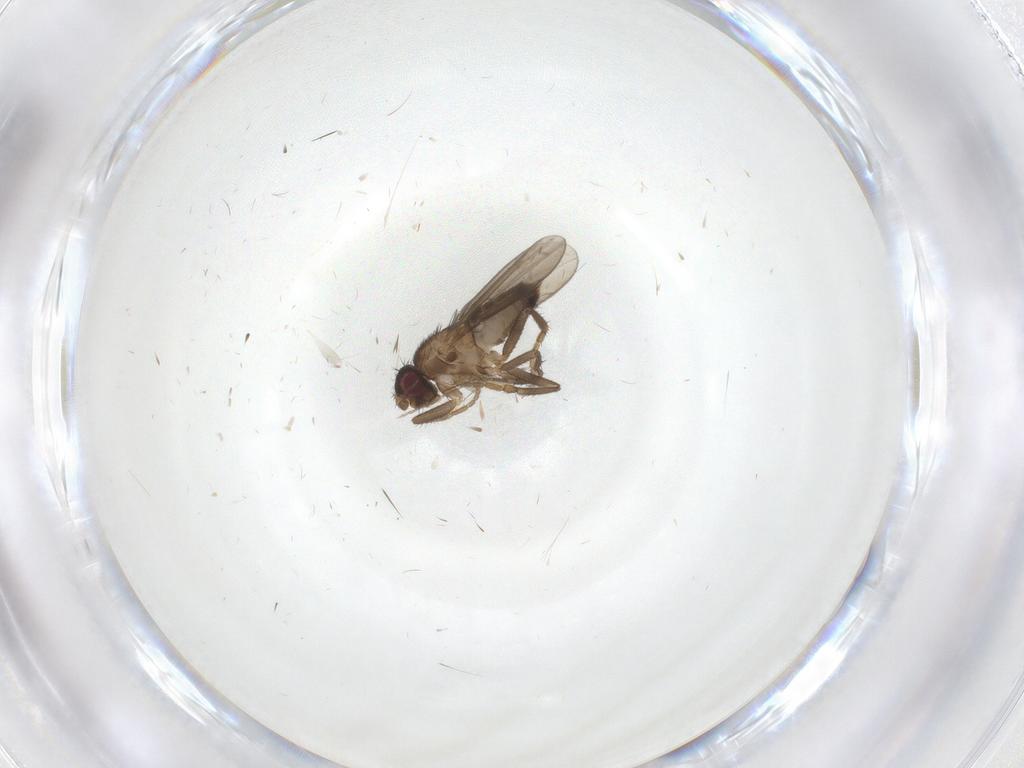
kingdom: Animalia
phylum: Arthropoda
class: Insecta
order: Diptera
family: Sphaeroceridae
